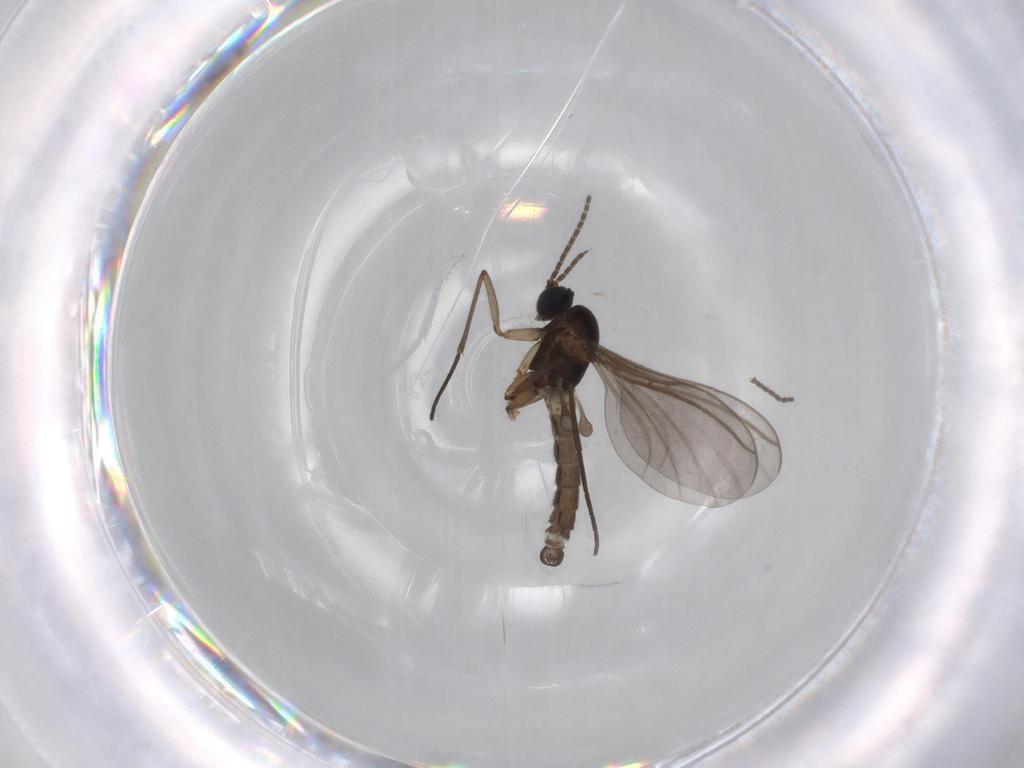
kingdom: Animalia
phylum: Arthropoda
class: Insecta
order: Diptera
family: Sciaridae
